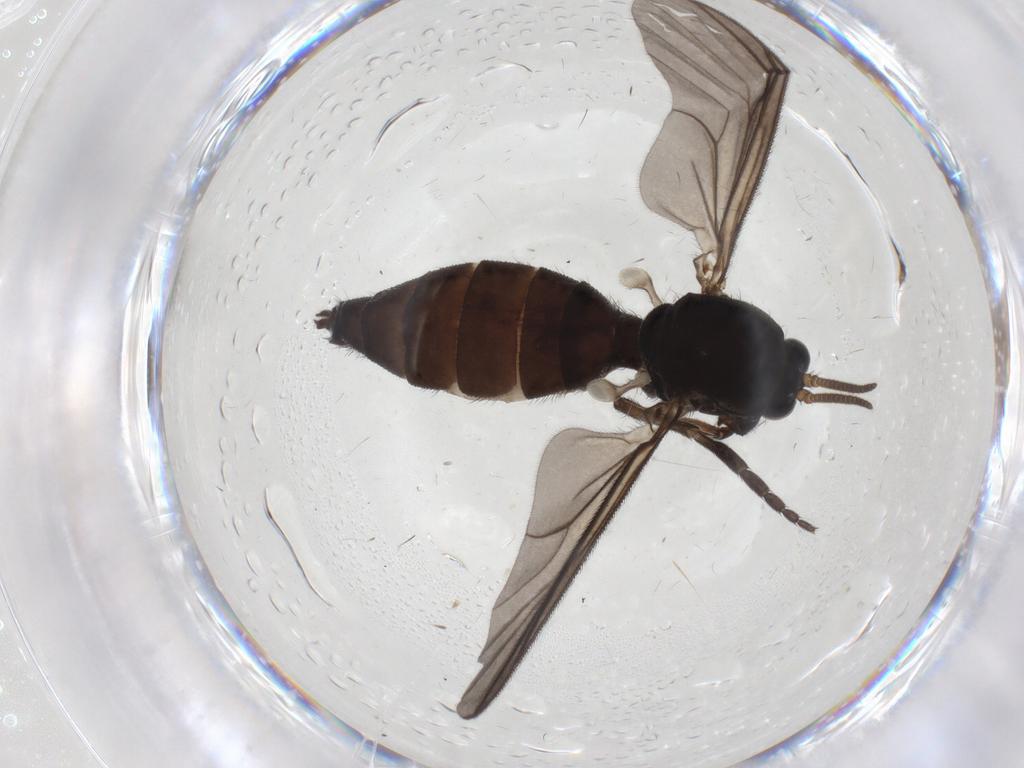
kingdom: Animalia
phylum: Arthropoda
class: Insecta
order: Diptera
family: Mycetophilidae
